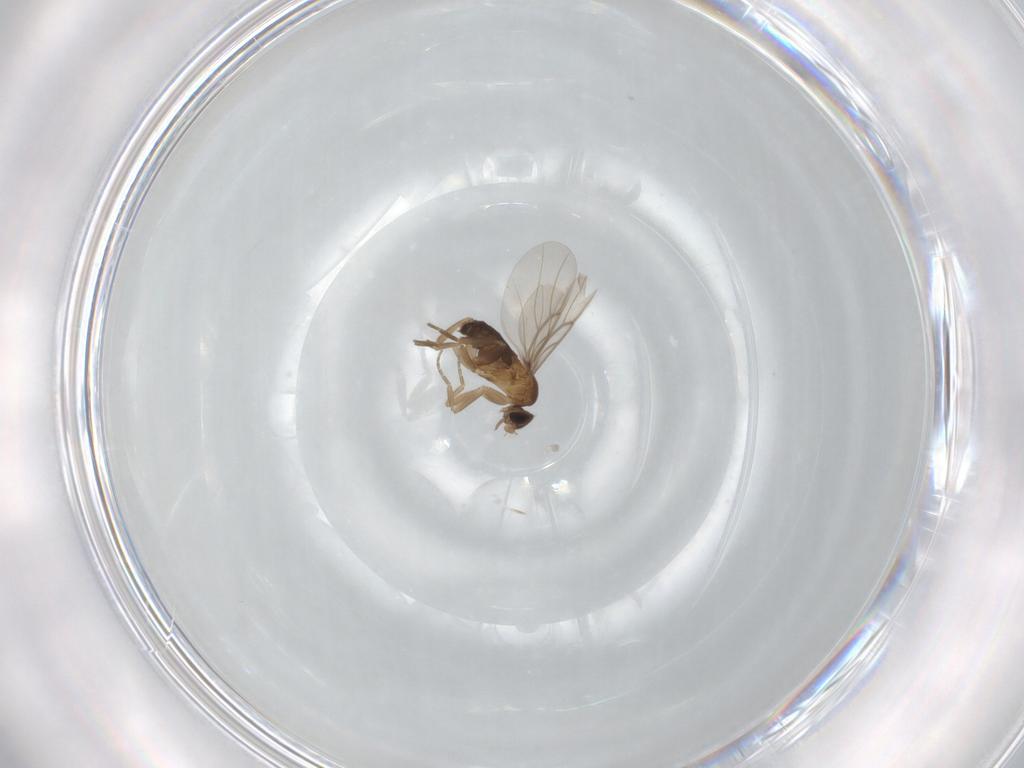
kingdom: Animalia
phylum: Arthropoda
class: Insecta
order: Diptera
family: Phoridae
